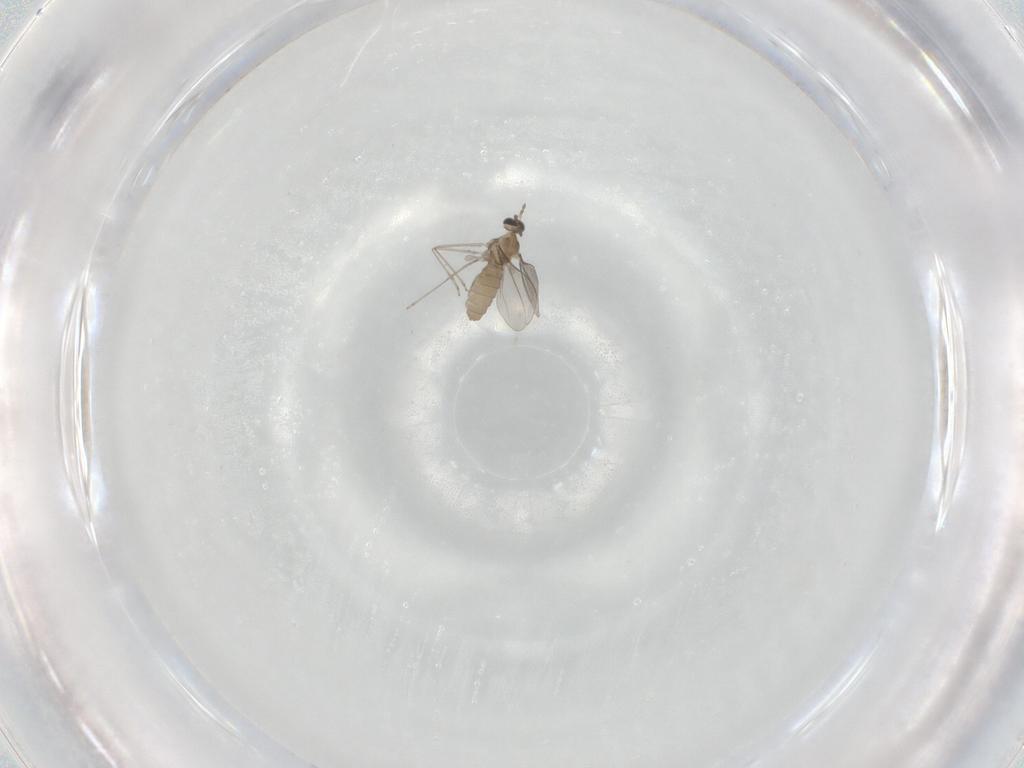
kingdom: Animalia
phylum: Arthropoda
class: Insecta
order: Diptera
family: Cecidomyiidae
